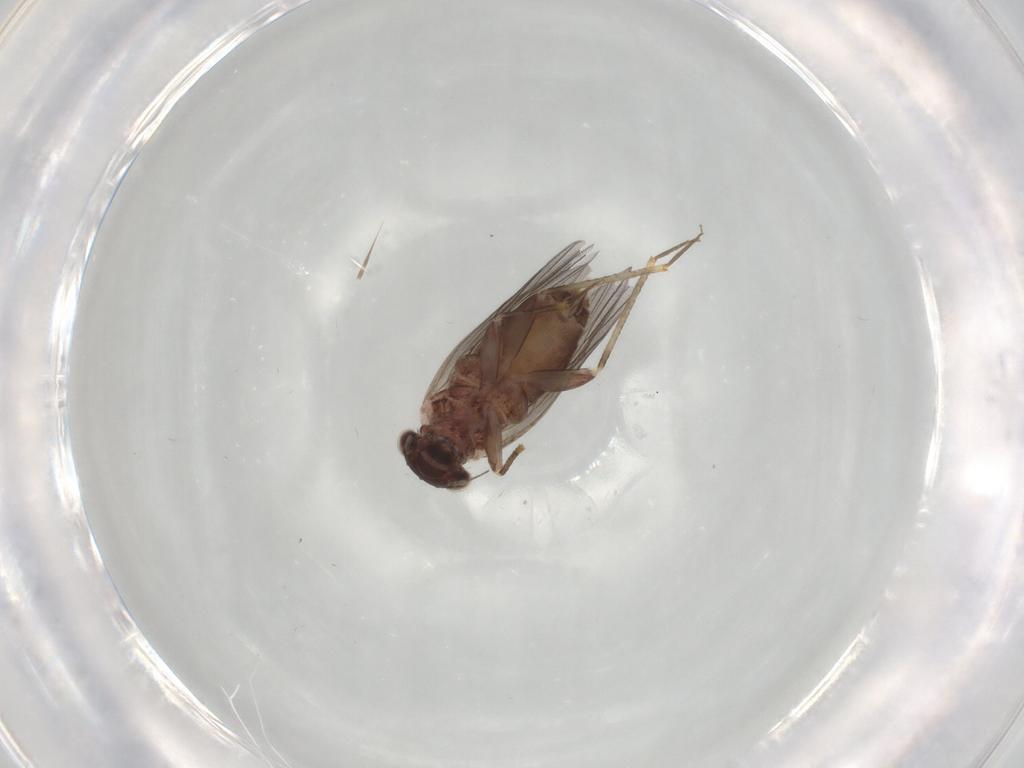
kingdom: Animalia
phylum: Arthropoda
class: Insecta
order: Psocodea
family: Lepidopsocidae
